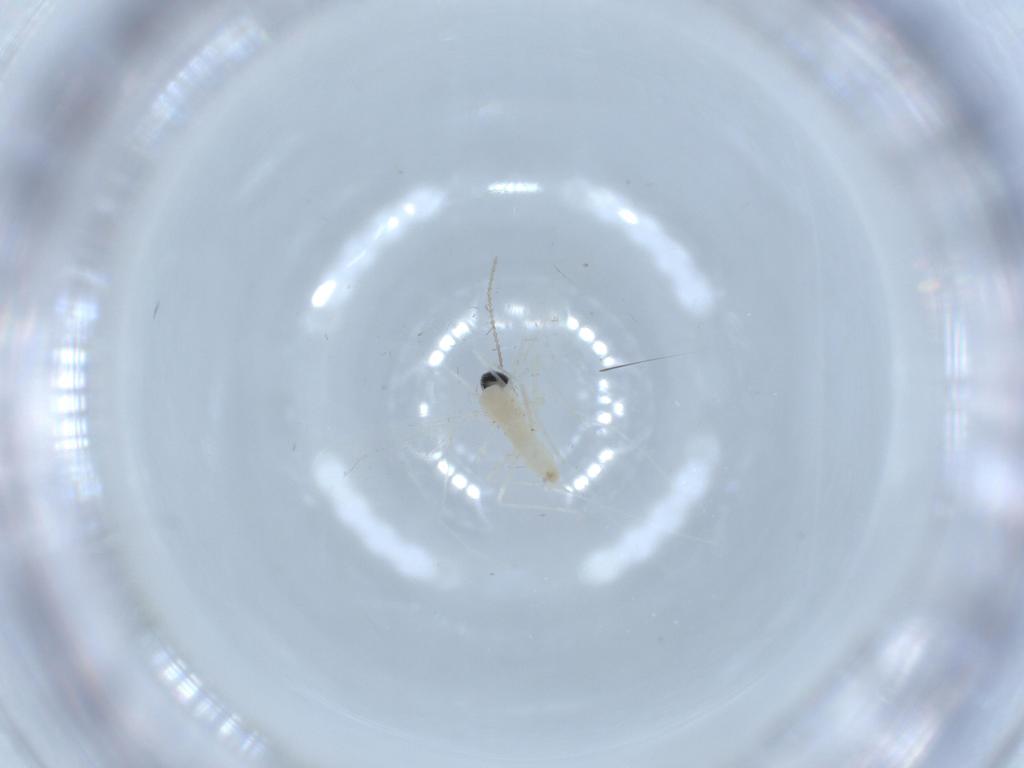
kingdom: Animalia
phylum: Arthropoda
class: Insecta
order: Diptera
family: Cecidomyiidae
